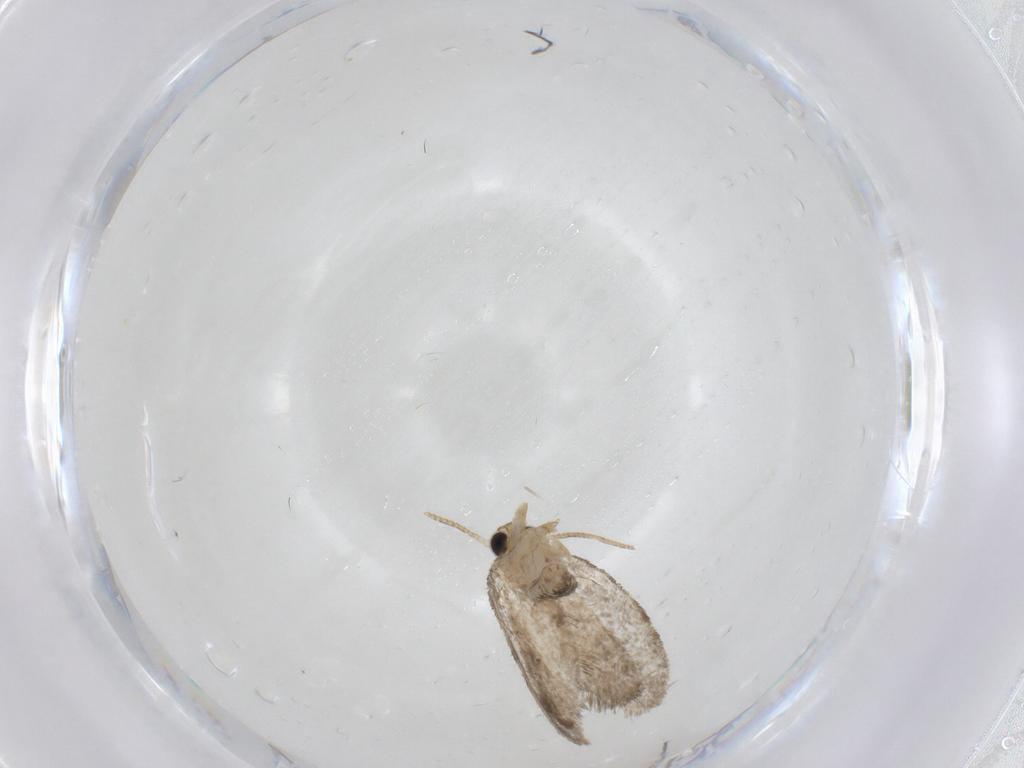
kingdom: Animalia
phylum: Arthropoda
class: Insecta
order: Lepidoptera
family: Psychidae
